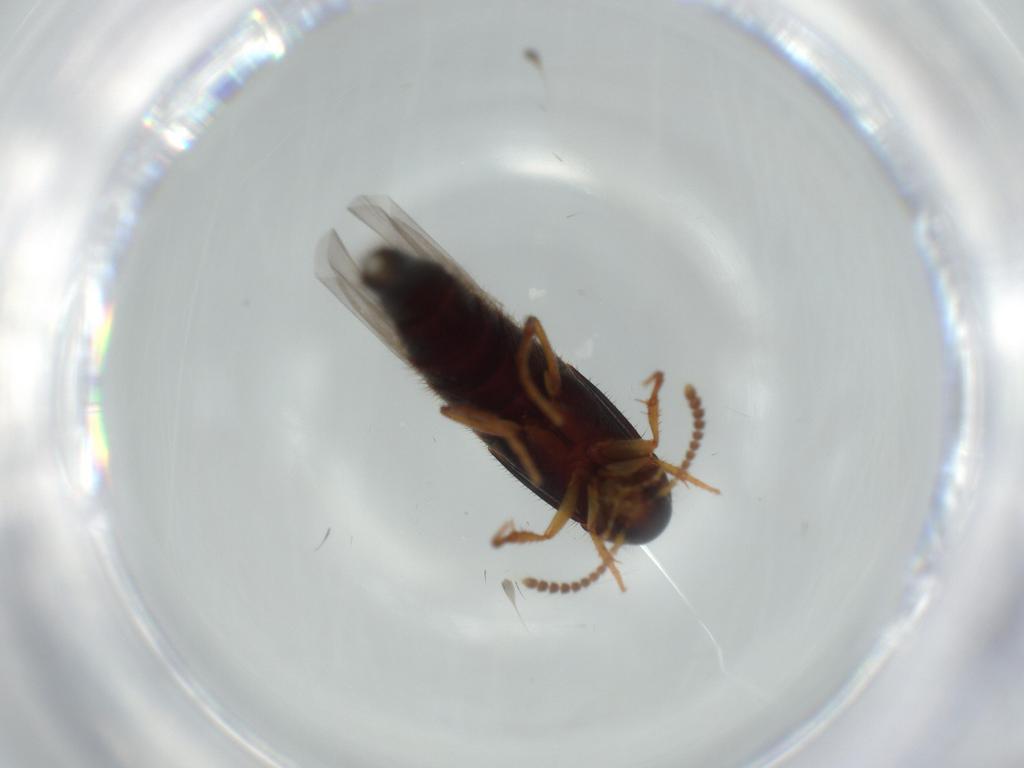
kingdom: Animalia
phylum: Arthropoda
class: Insecta
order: Coleoptera
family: Staphylinidae
